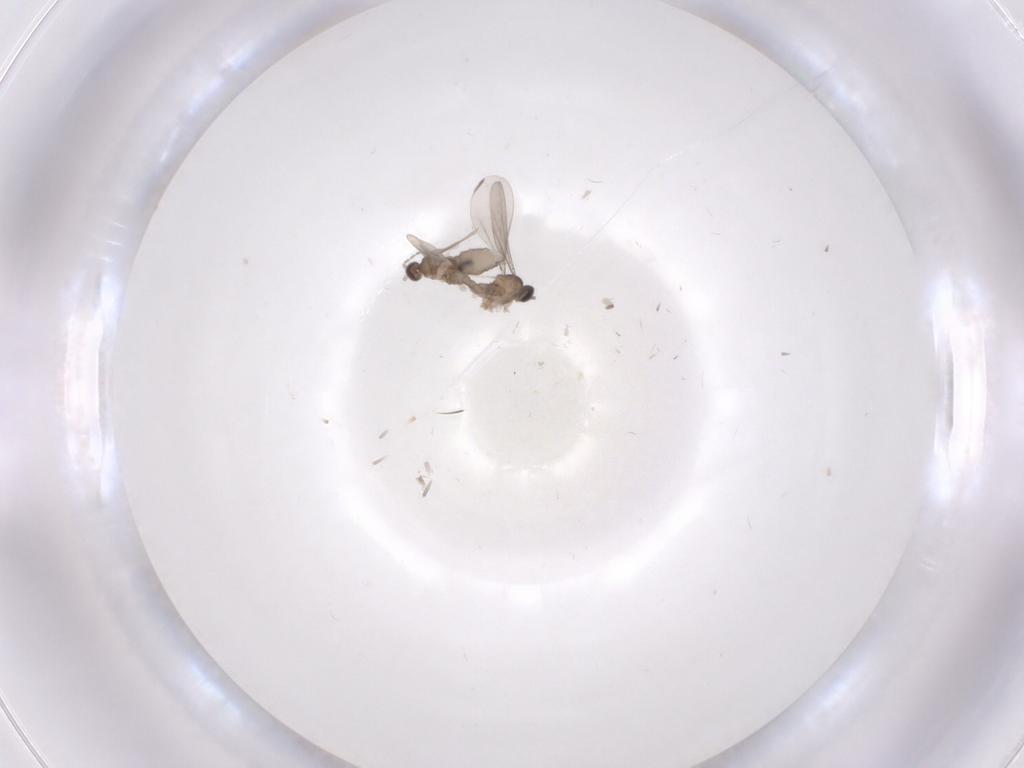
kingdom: Animalia
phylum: Arthropoda
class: Insecta
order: Diptera
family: Cecidomyiidae
